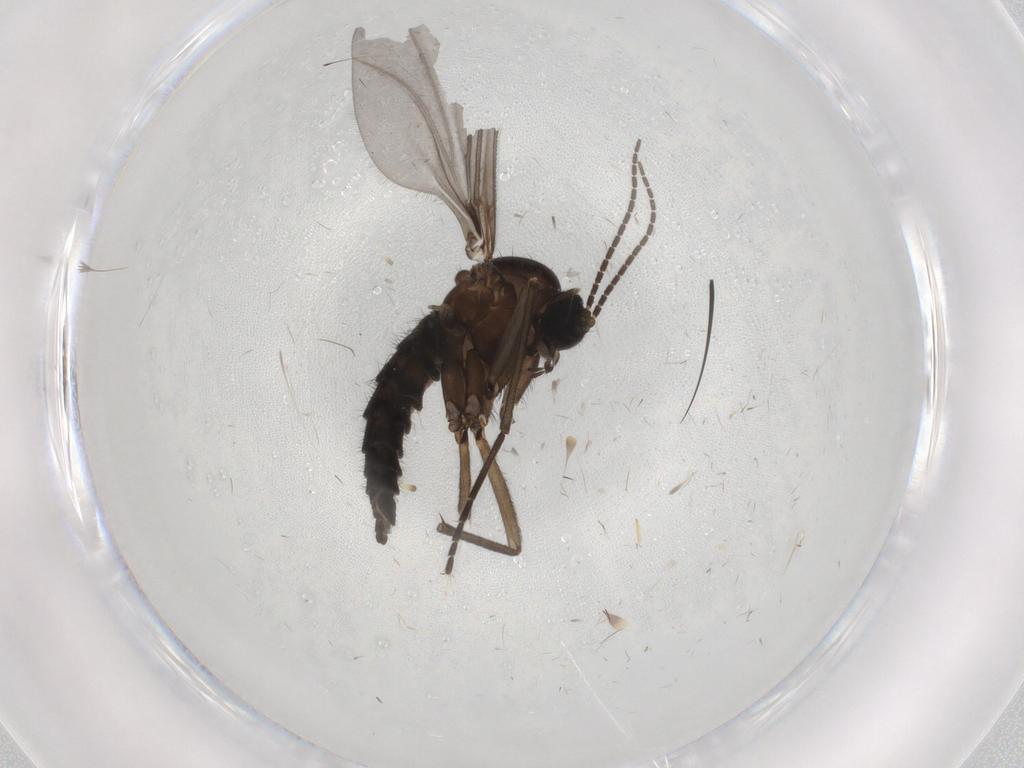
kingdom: Animalia
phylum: Arthropoda
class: Insecta
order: Diptera
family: Sciaridae
